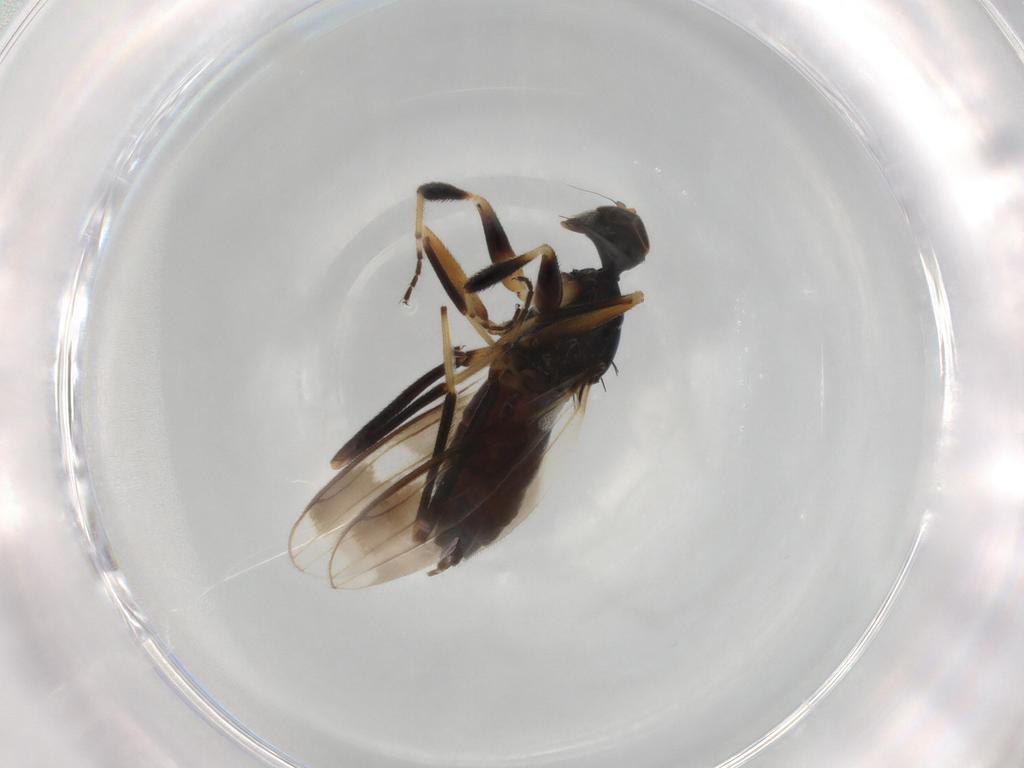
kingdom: Animalia
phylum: Arthropoda
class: Insecta
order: Diptera
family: Hybotidae
